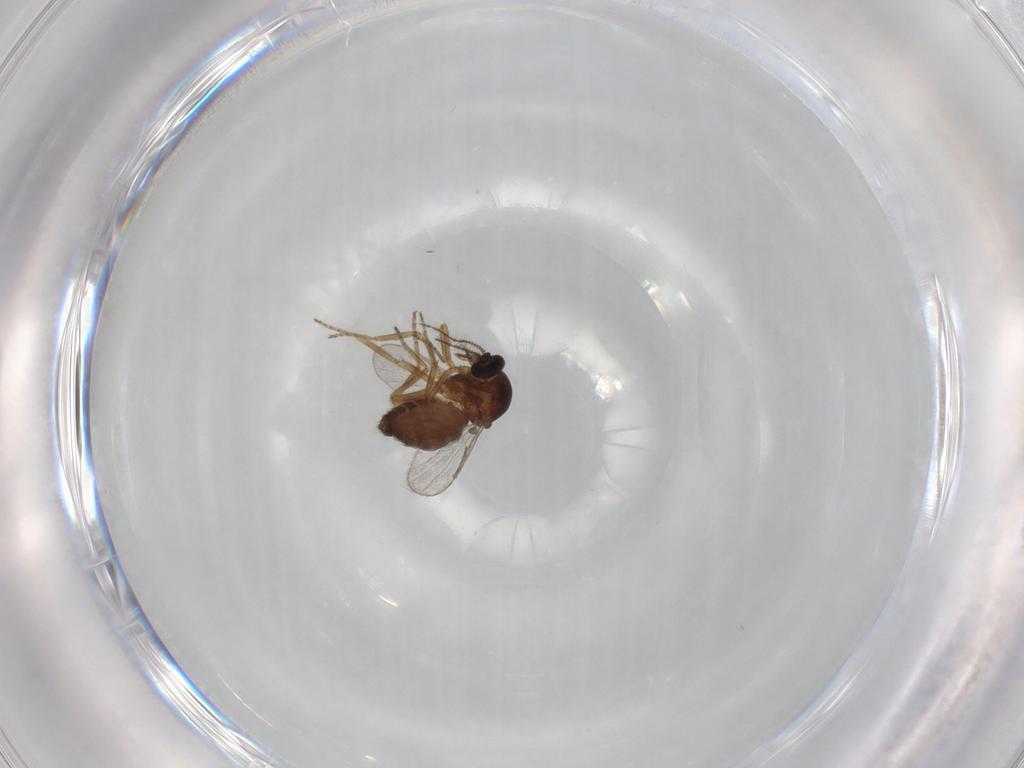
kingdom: Animalia
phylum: Arthropoda
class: Insecta
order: Diptera
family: Ceratopogonidae
